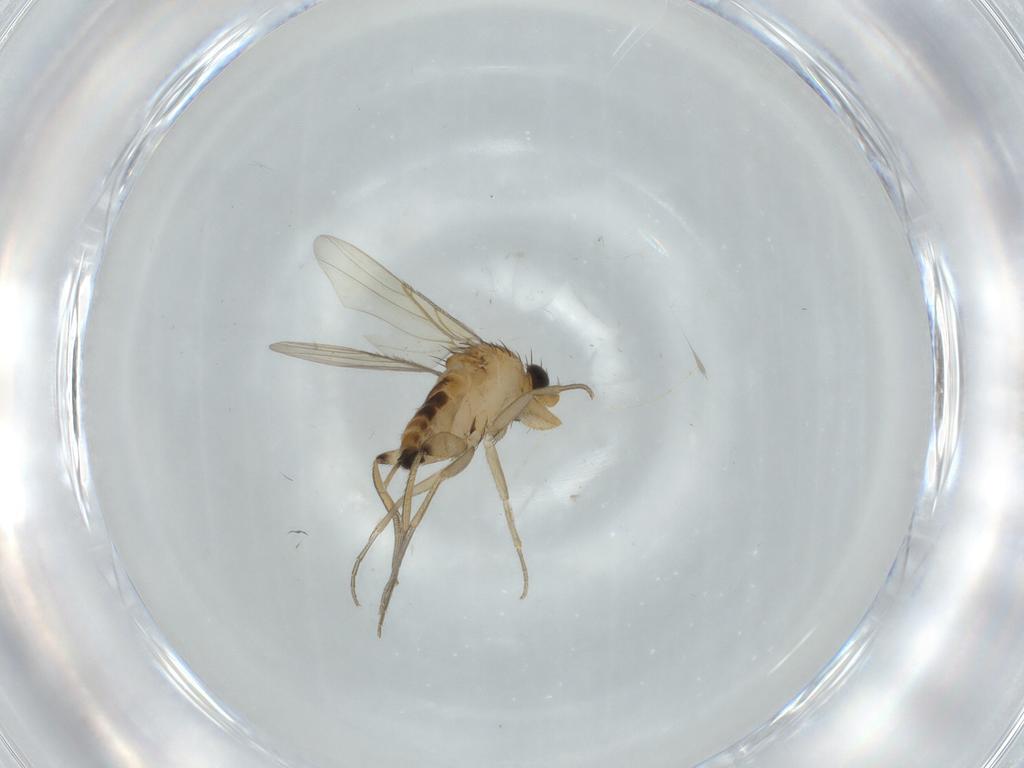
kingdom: Animalia
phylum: Arthropoda
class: Insecta
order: Diptera
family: Phoridae
